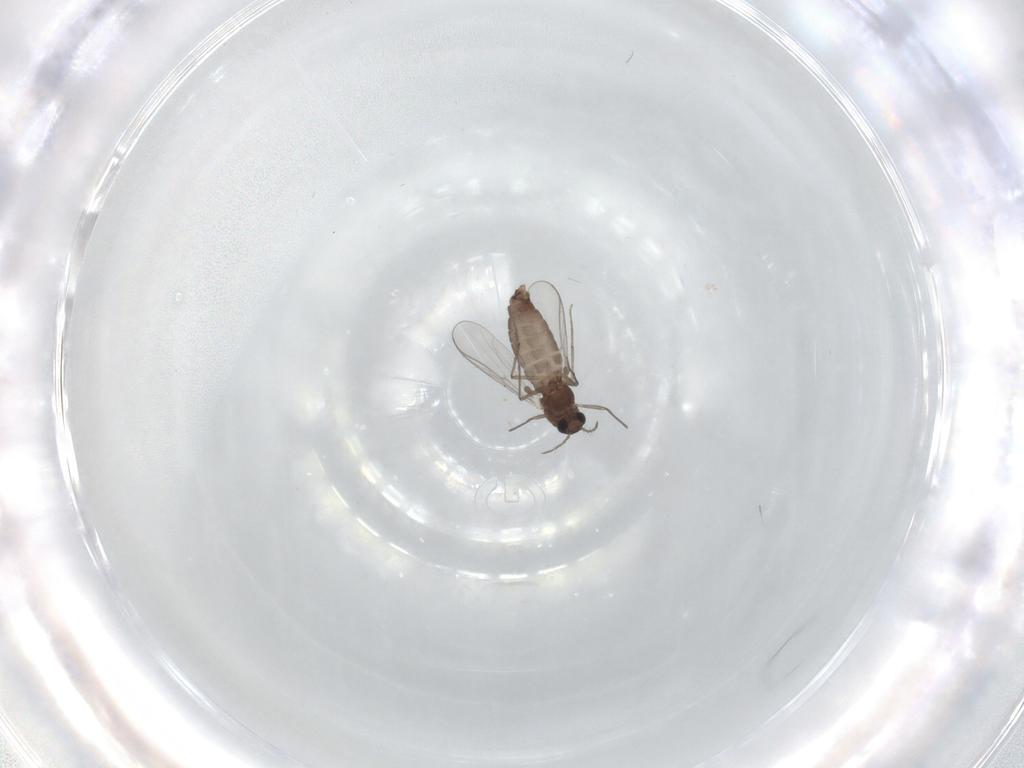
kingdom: Animalia
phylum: Arthropoda
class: Insecta
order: Diptera
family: Chironomidae
